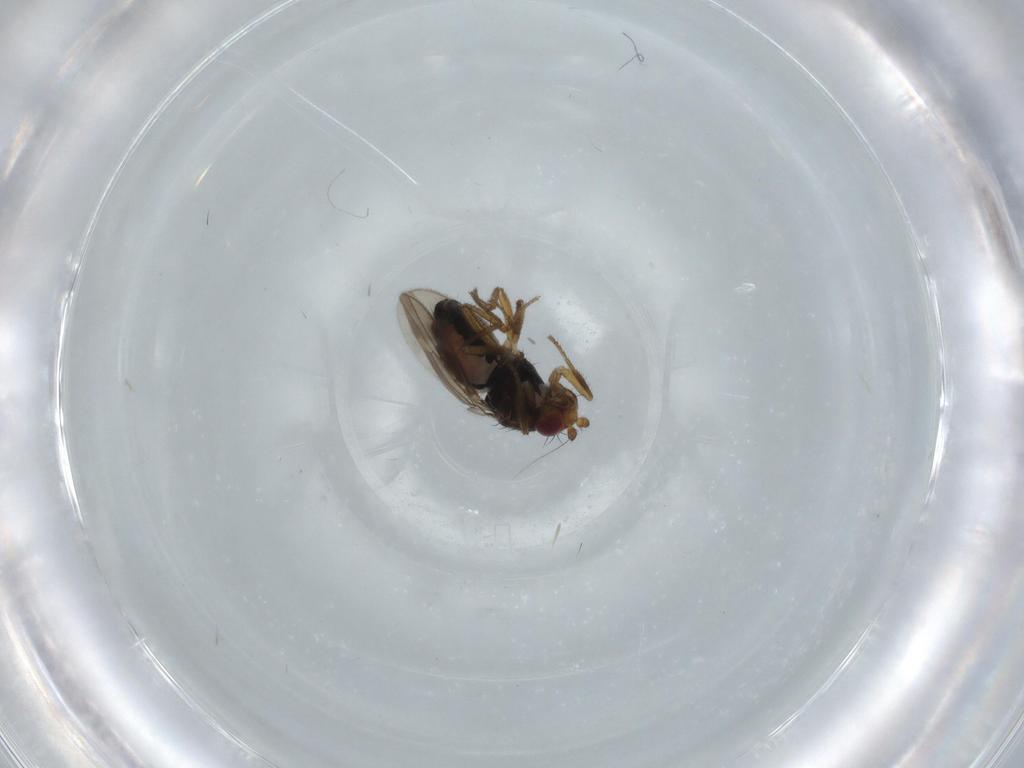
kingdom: Animalia
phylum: Arthropoda
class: Insecta
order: Diptera
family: Sphaeroceridae
